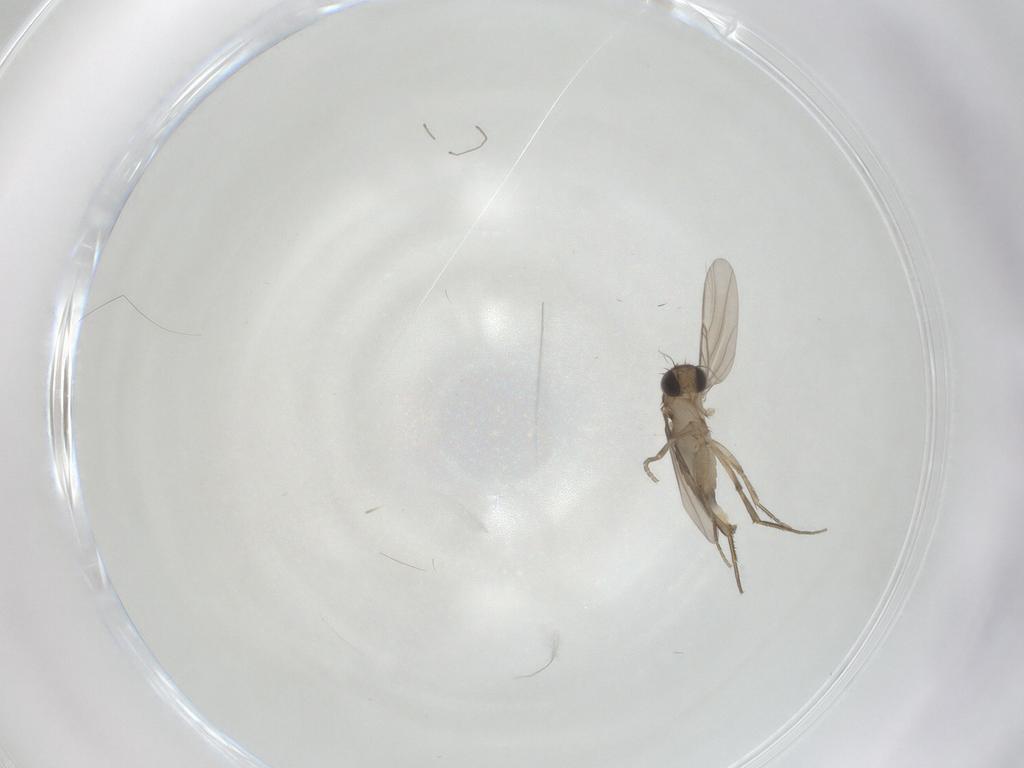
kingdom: Animalia
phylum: Arthropoda
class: Insecta
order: Diptera
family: Phoridae
